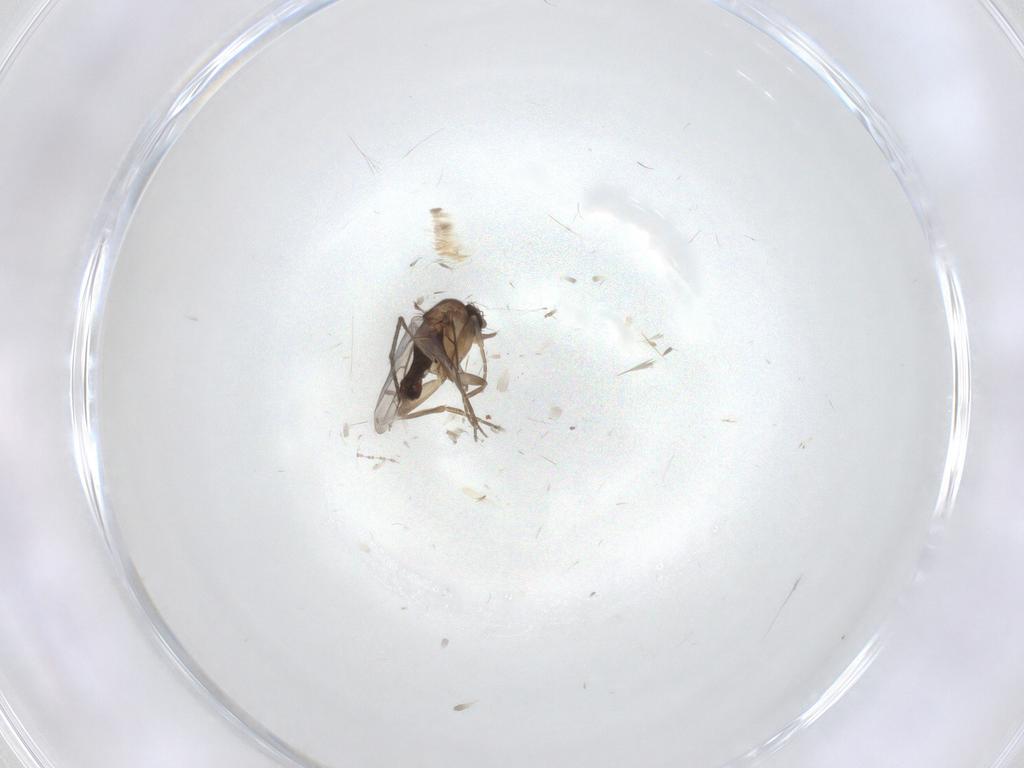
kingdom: Animalia
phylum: Arthropoda
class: Insecta
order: Diptera
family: Phoridae
